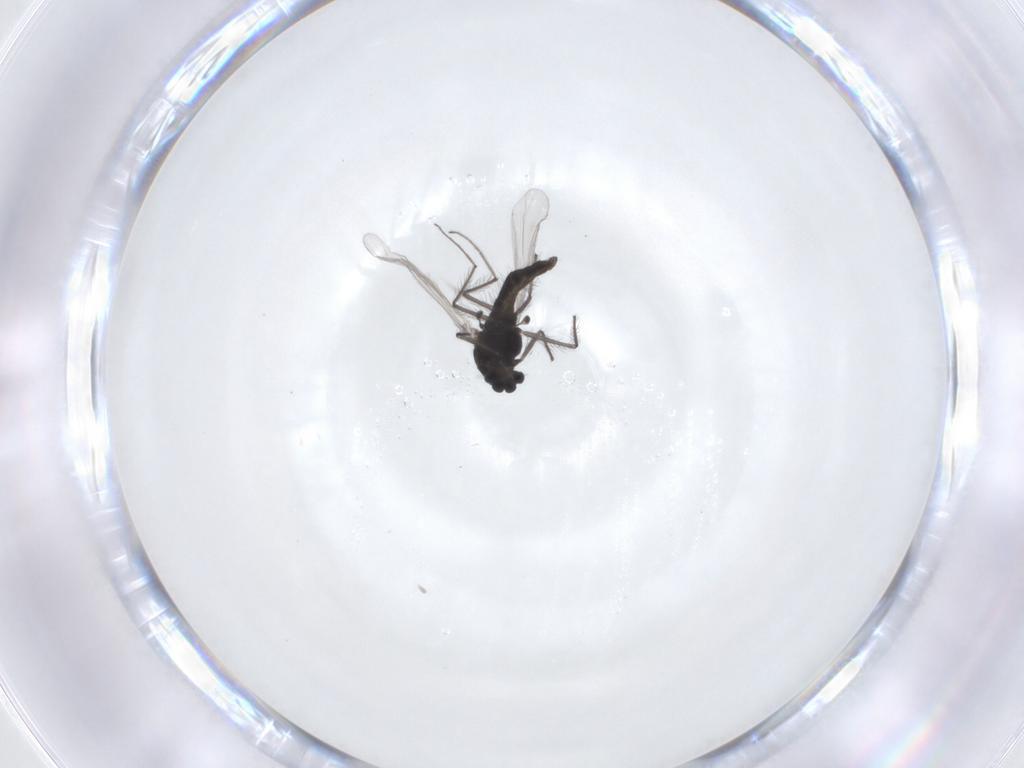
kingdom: Animalia
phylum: Arthropoda
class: Insecta
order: Diptera
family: Chironomidae
